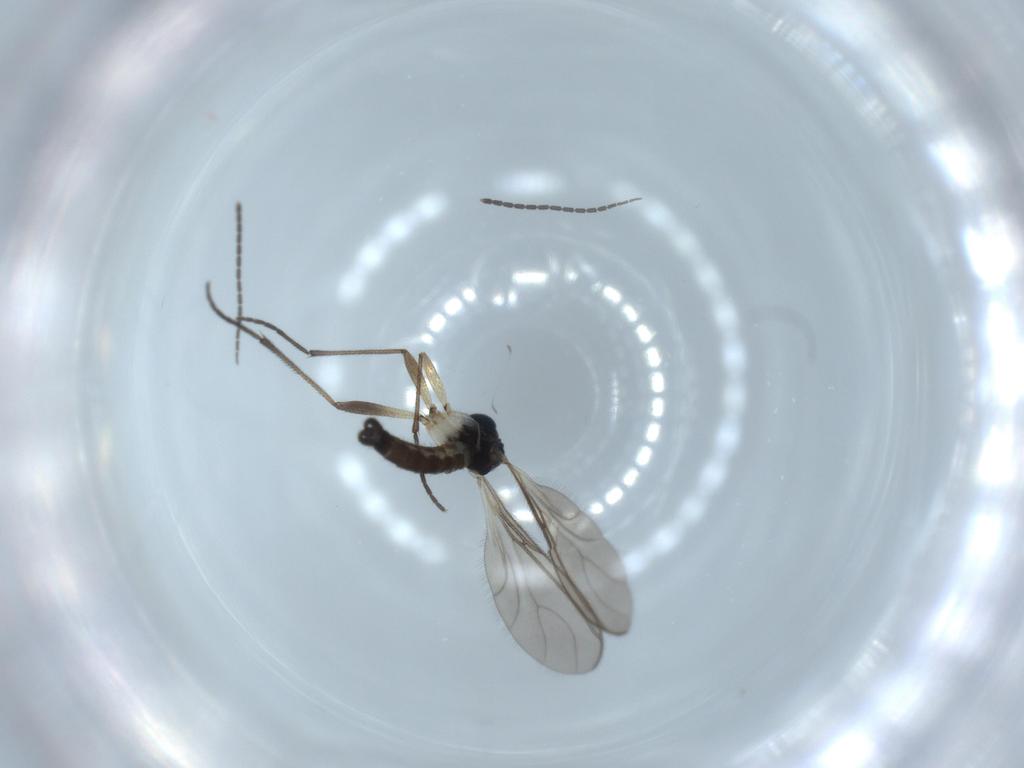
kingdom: Animalia
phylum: Arthropoda
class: Insecta
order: Diptera
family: Sciaridae
